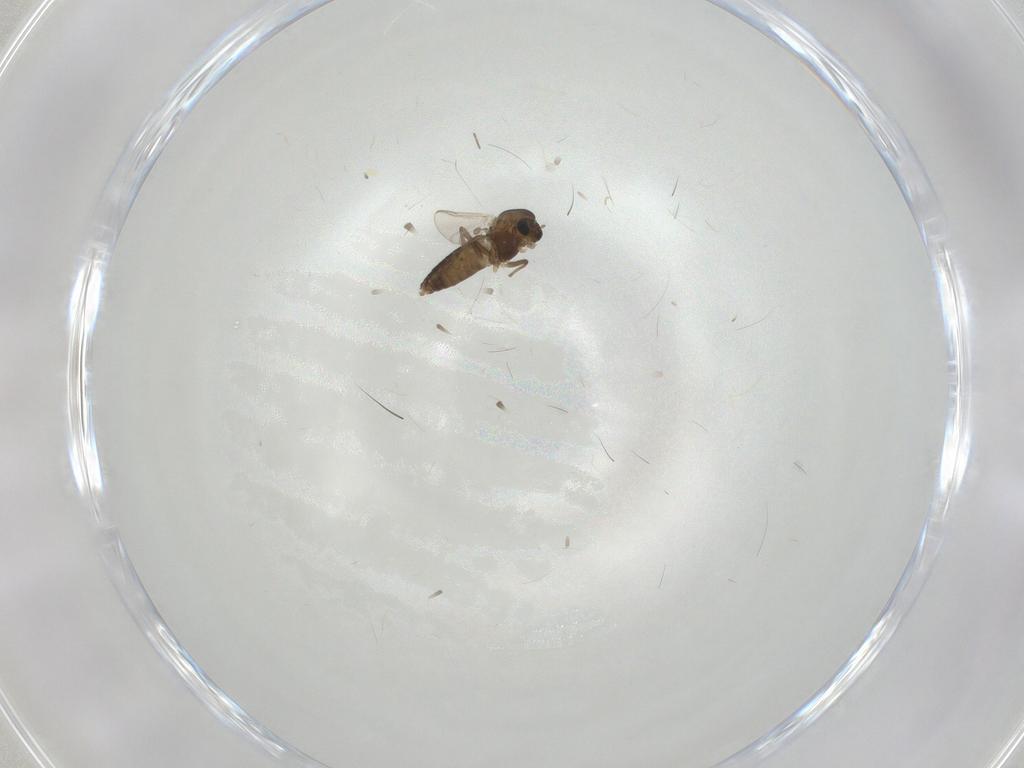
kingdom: Animalia
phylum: Arthropoda
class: Insecta
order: Diptera
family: Chironomidae
